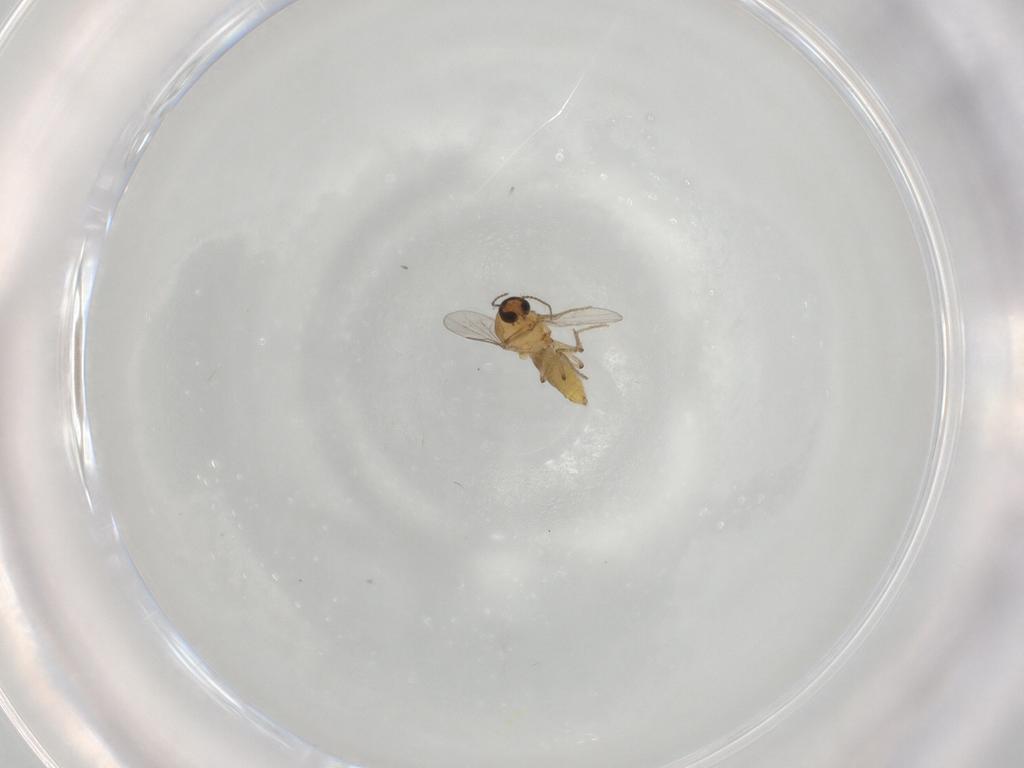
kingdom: Animalia
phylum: Arthropoda
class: Insecta
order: Diptera
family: Ceratopogonidae
